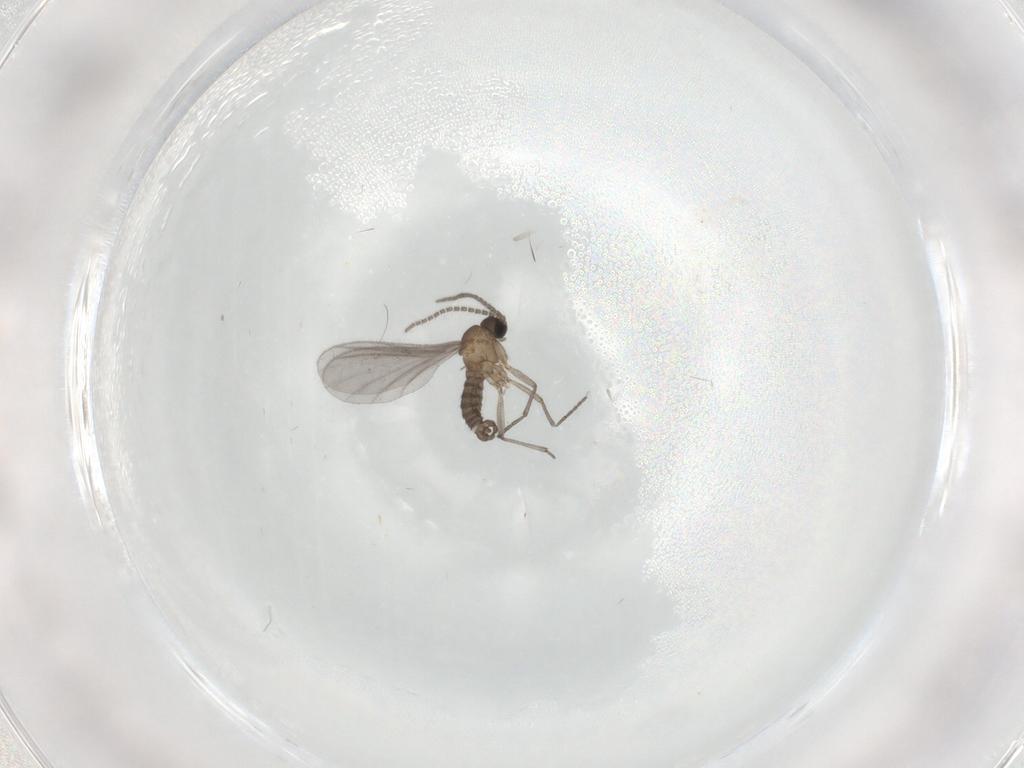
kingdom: Animalia
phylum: Arthropoda
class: Insecta
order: Diptera
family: Sciaridae
